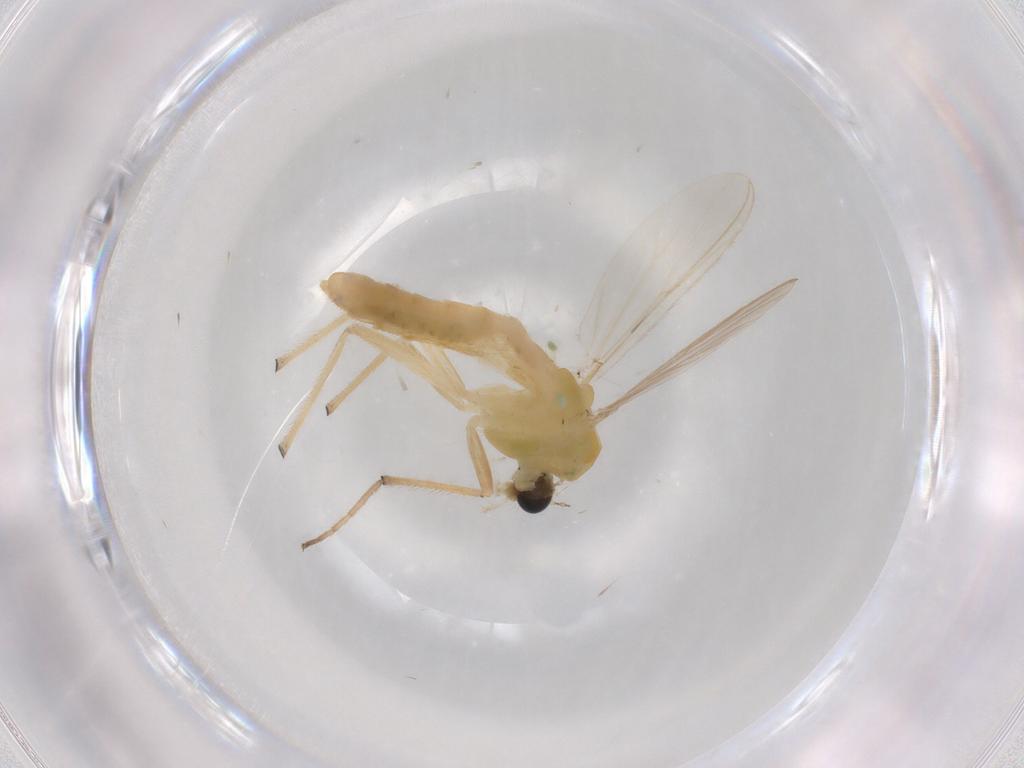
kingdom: Animalia
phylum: Arthropoda
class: Insecta
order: Diptera
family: Chironomidae
